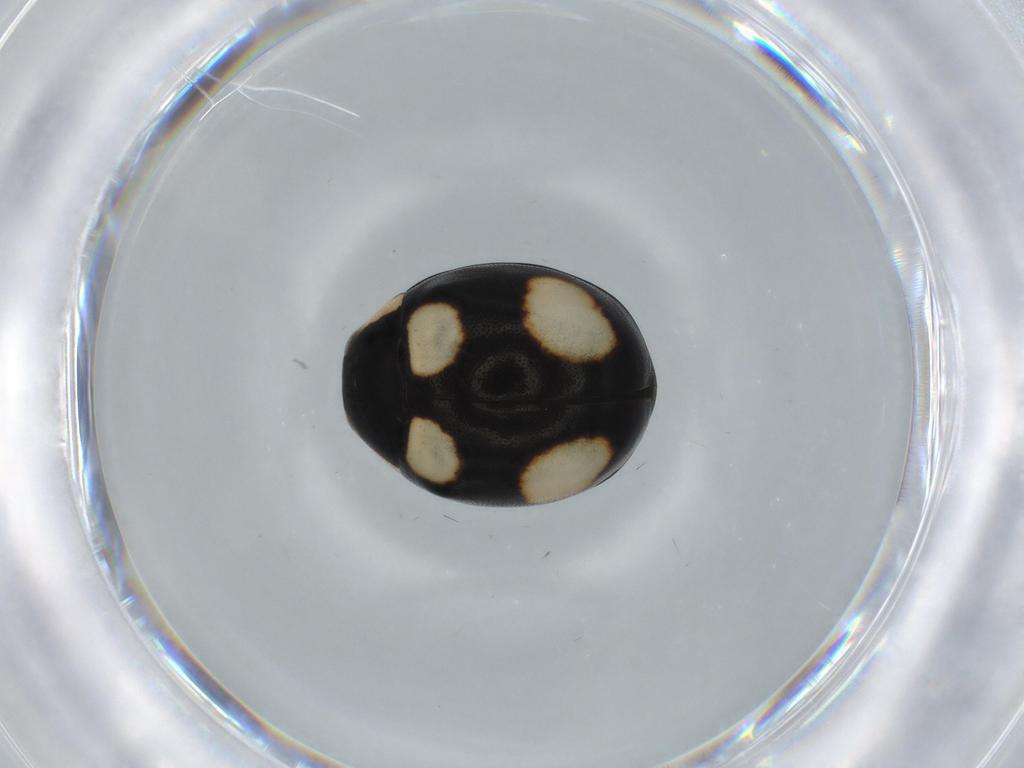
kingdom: Animalia
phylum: Arthropoda
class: Insecta
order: Coleoptera
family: Coccinellidae
